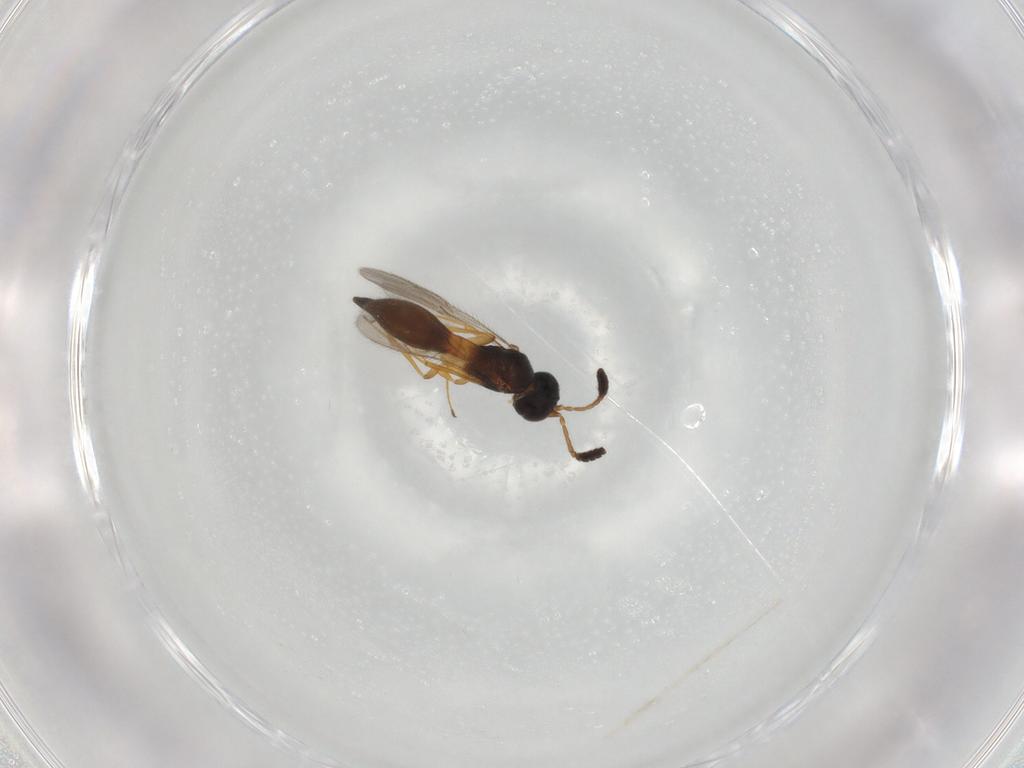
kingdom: Animalia
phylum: Arthropoda
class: Insecta
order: Hymenoptera
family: Scelionidae
